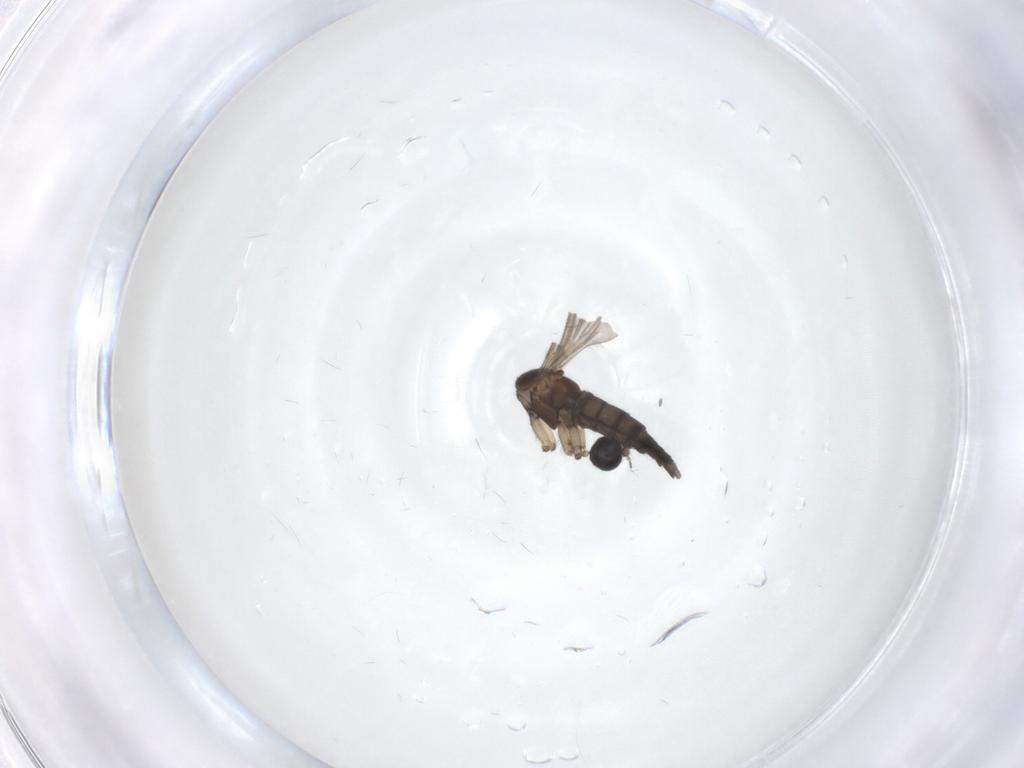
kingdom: Animalia
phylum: Arthropoda
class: Insecta
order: Diptera
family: Sciaridae
